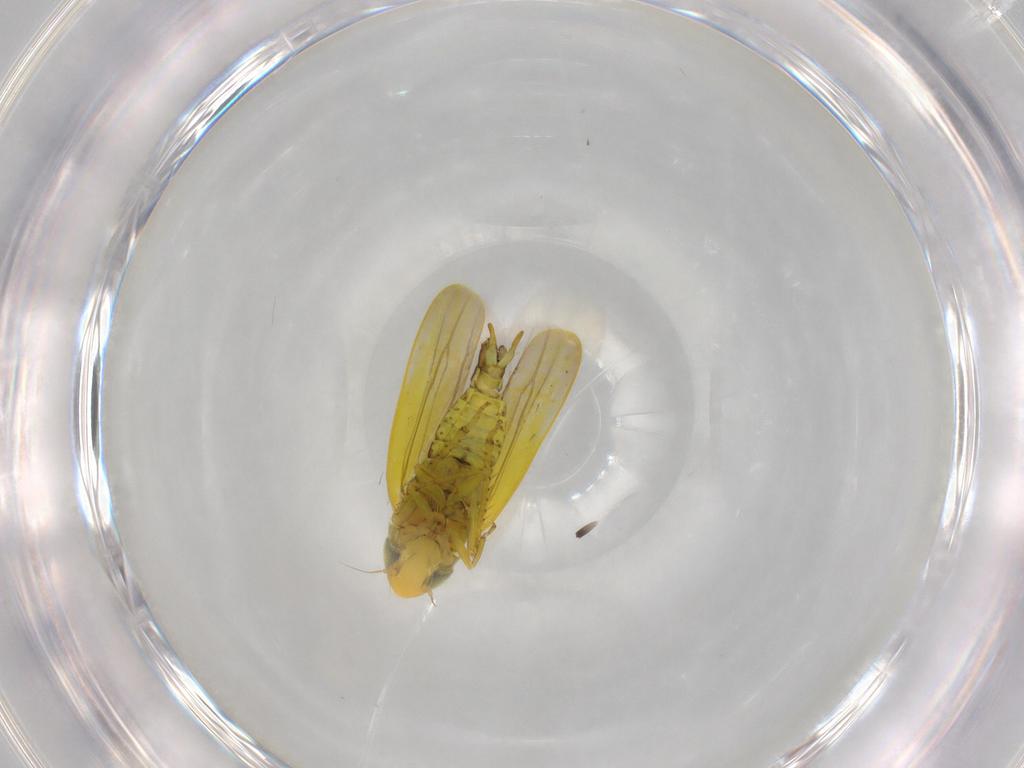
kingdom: Animalia
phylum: Arthropoda
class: Insecta
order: Hemiptera
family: Cicadellidae
